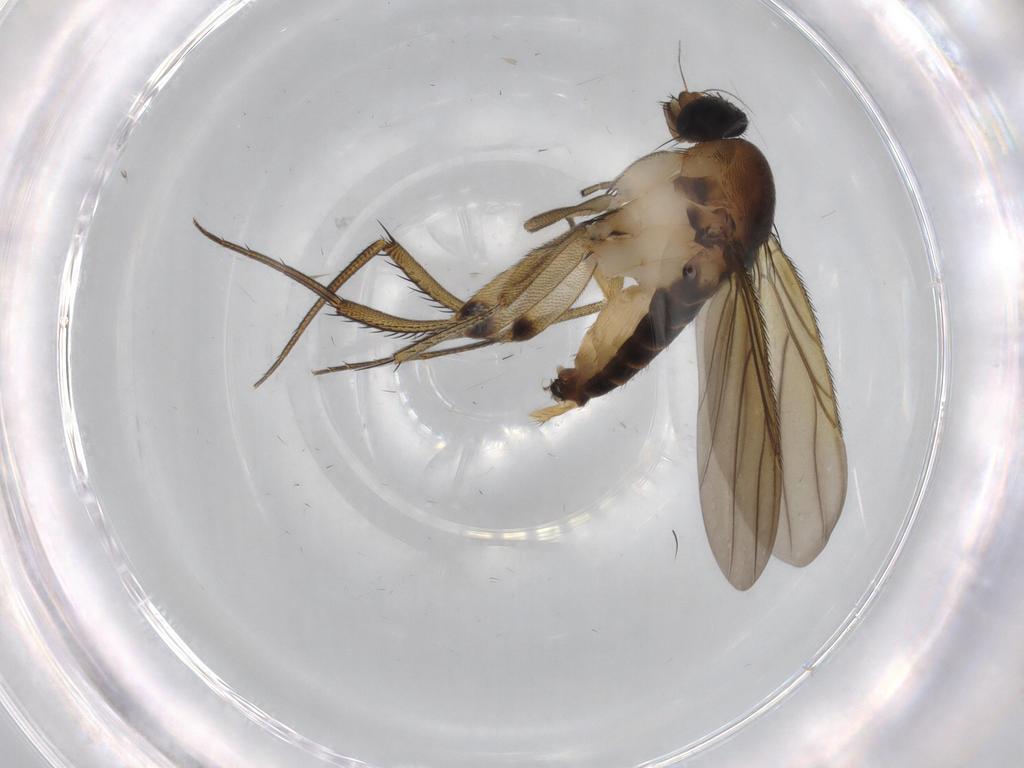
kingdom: Animalia
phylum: Arthropoda
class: Insecta
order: Diptera
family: Phoridae
